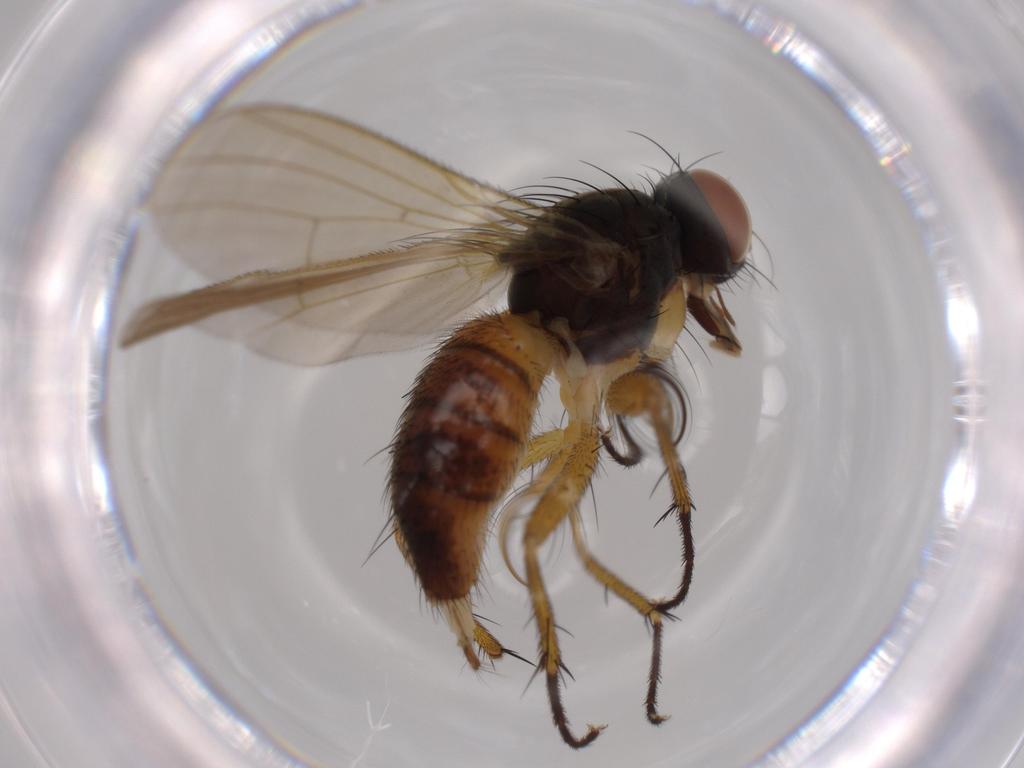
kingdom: Animalia
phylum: Arthropoda
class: Insecta
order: Diptera
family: Muscidae
